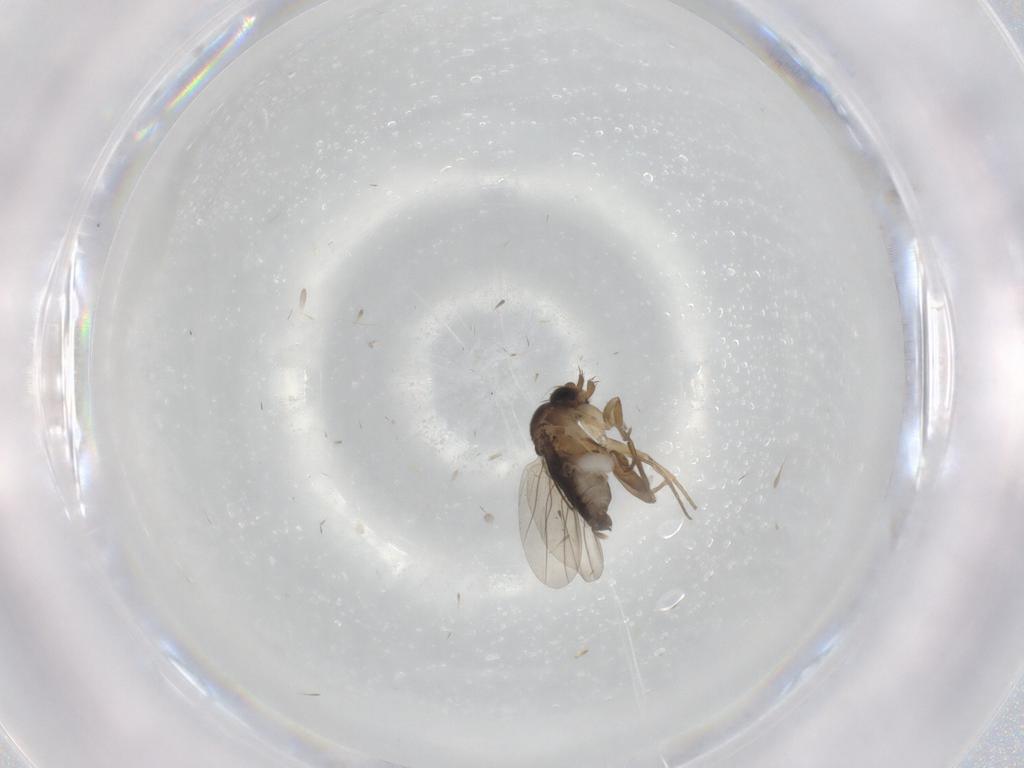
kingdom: Animalia
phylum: Arthropoda
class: Insecta
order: Diptera
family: Phoridae
